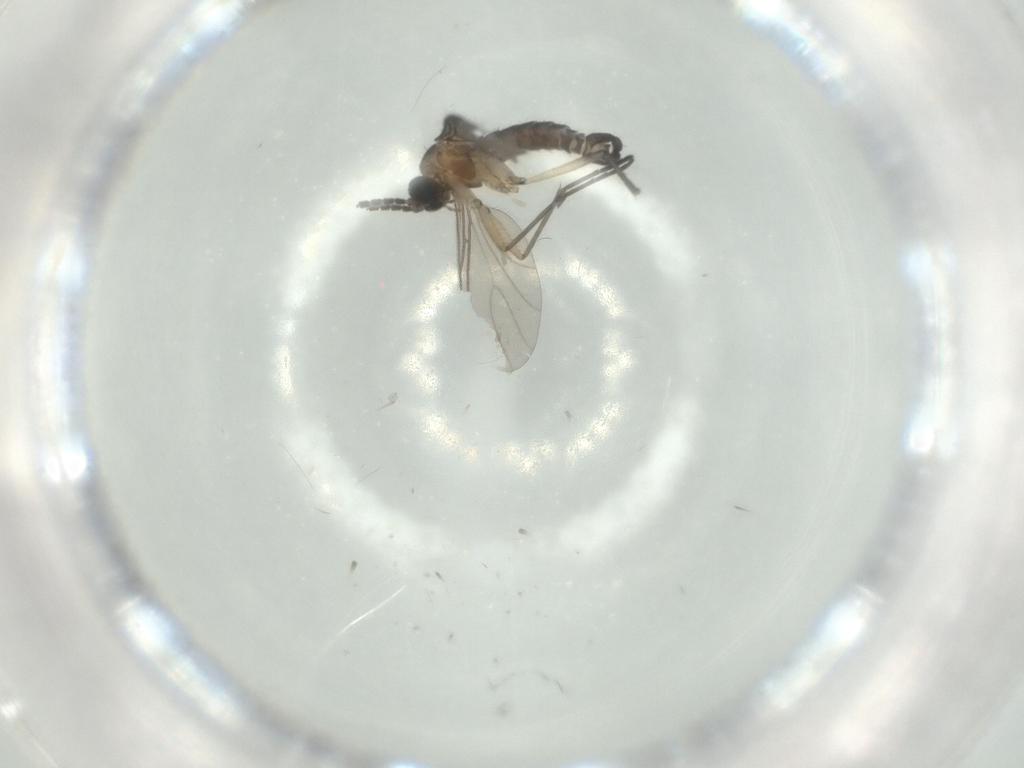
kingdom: Animalia
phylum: Arthropoda
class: Insecta
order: Diptera
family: Sciaridae
